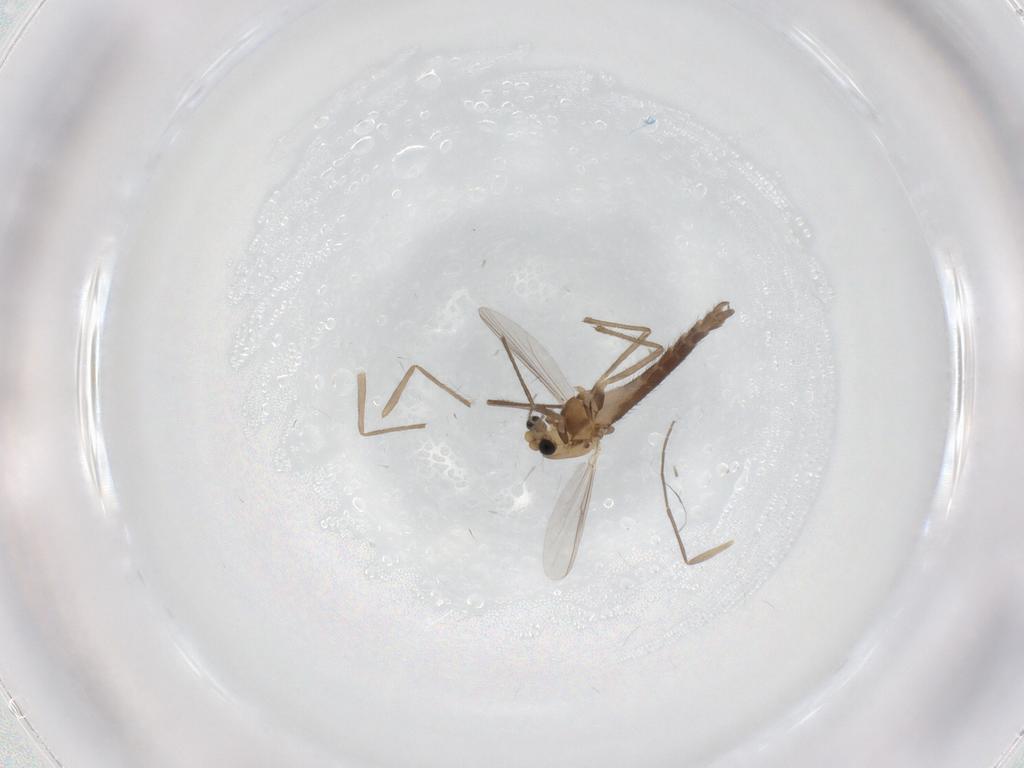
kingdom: Animalia
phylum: Arthropoda
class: Insecta
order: Diptera
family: Chironomidae
